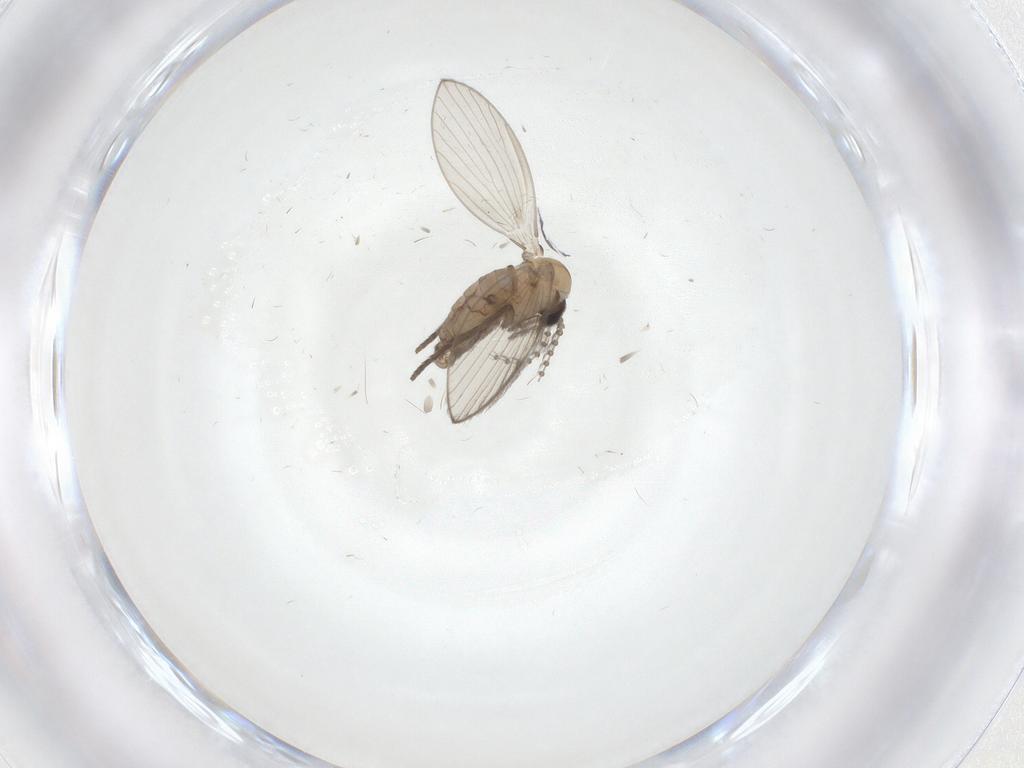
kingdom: Animalia
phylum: Arthropoda
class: Insecta
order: Diptera
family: Psychodidae
